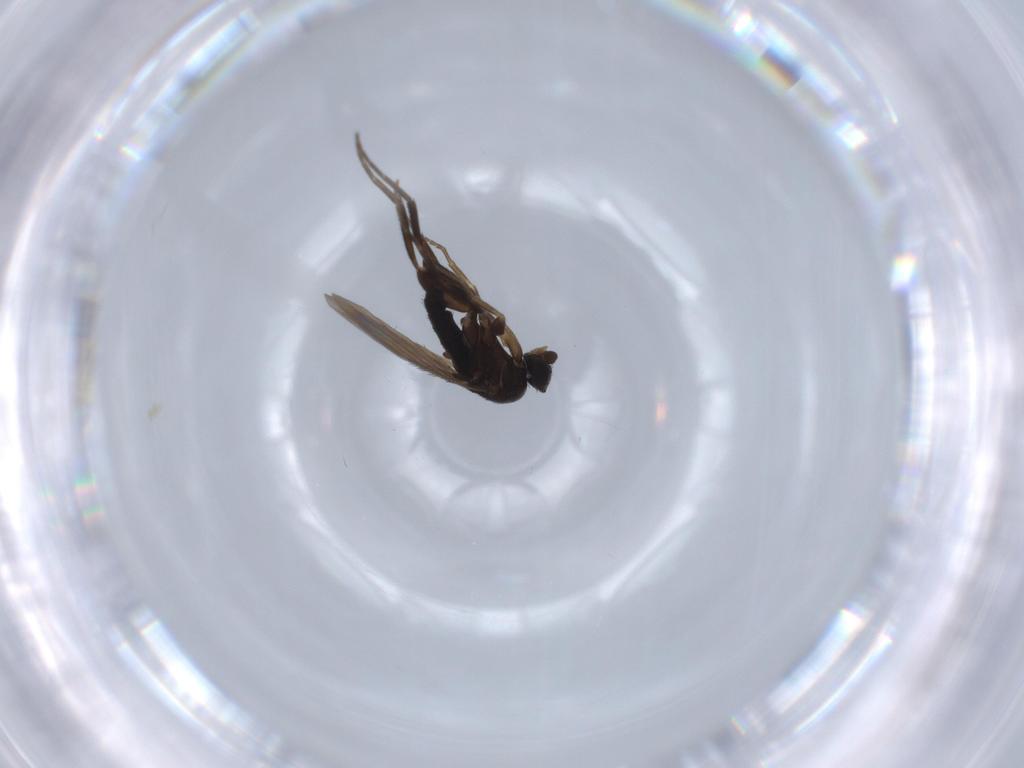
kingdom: Animalia
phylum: Arthropoda
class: Insecta
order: Diptera
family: Phoridae
